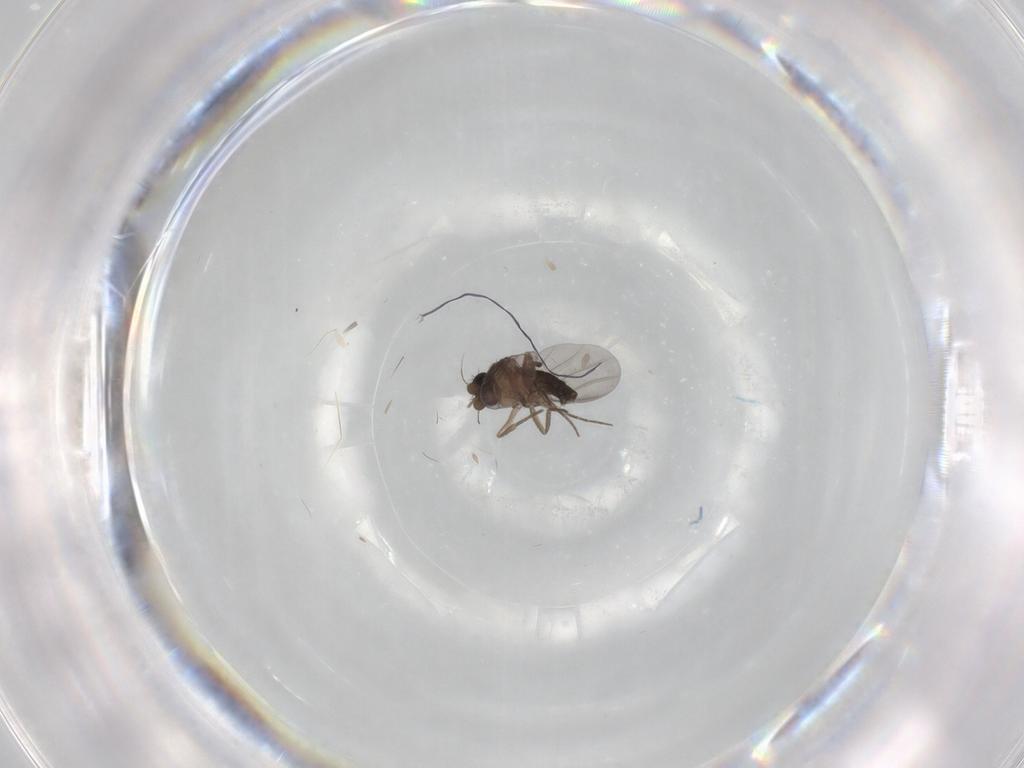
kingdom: Animalia
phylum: Arthropoda
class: Insecta
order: Diptera
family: Phoridae
